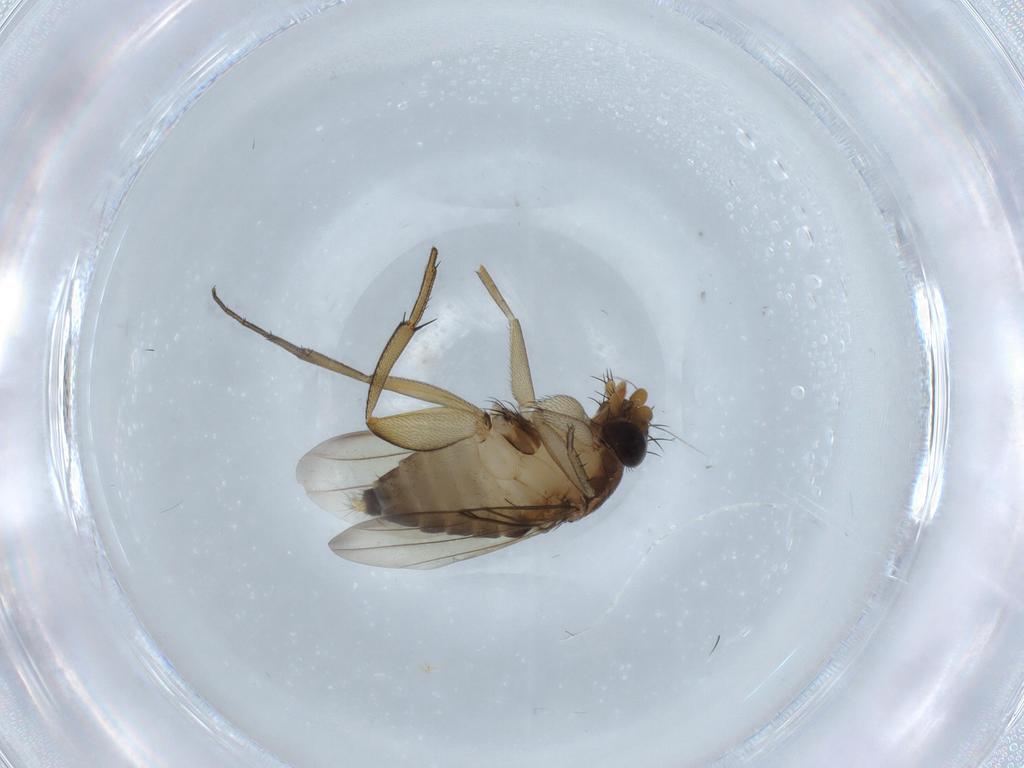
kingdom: Animalia
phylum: Arthropoda
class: Insecta
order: Diptera
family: Phoridae
